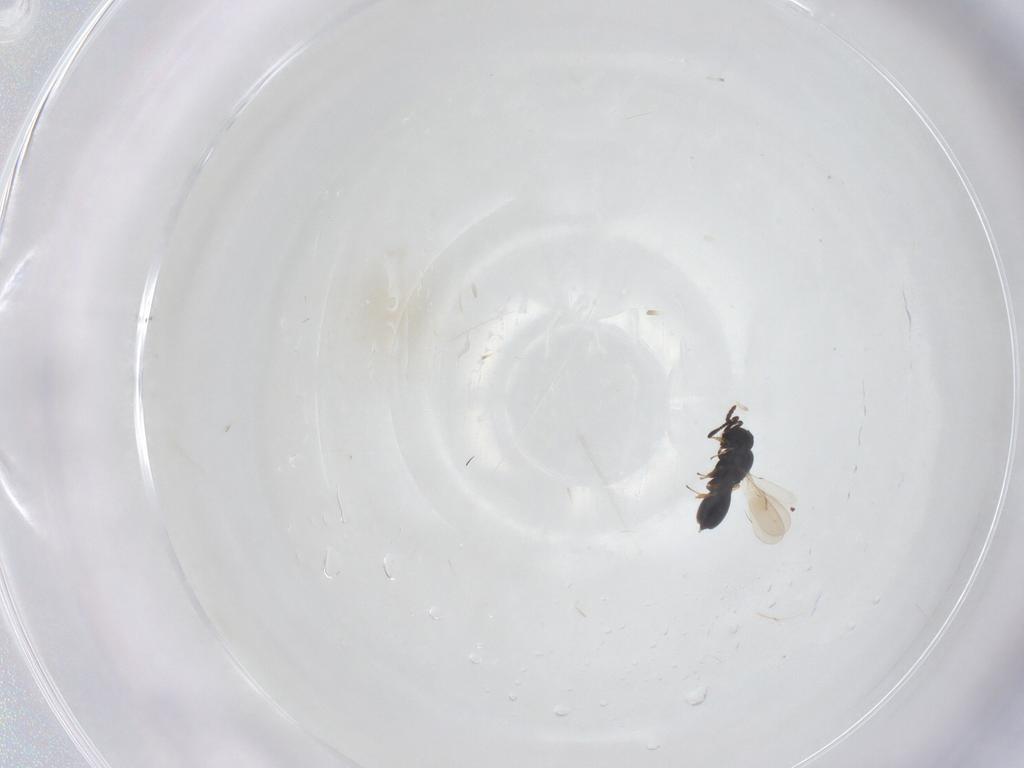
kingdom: Animalia
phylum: Arthropoda
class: Insecta
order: Hymenoptera
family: Scelionidae
